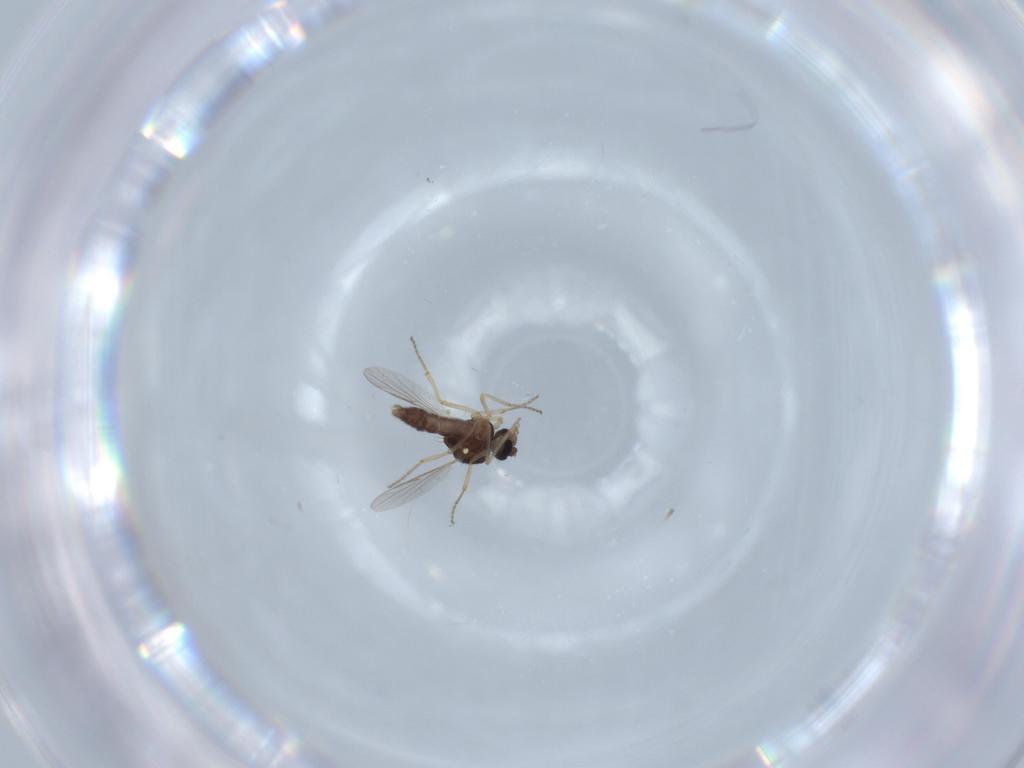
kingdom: Animalia
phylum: Arthropoda
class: Insecta
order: Diptera
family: Ceratopogonidae
